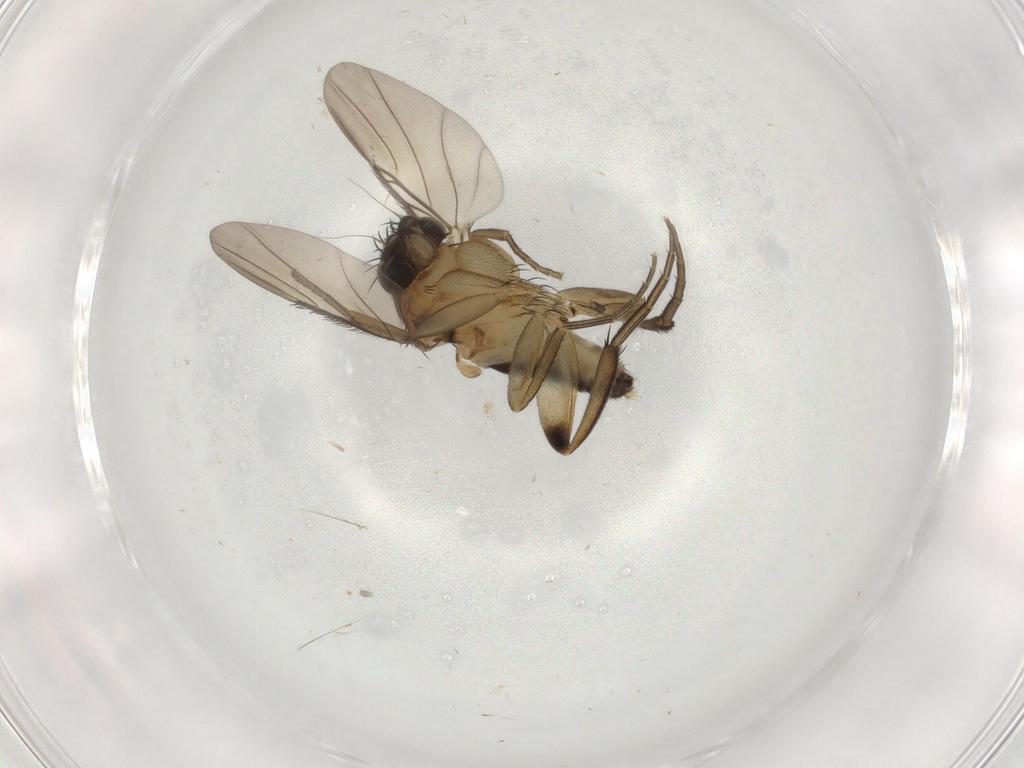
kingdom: Animalia
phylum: Arthropoda
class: Insecta
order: Diptera
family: Phoridae
